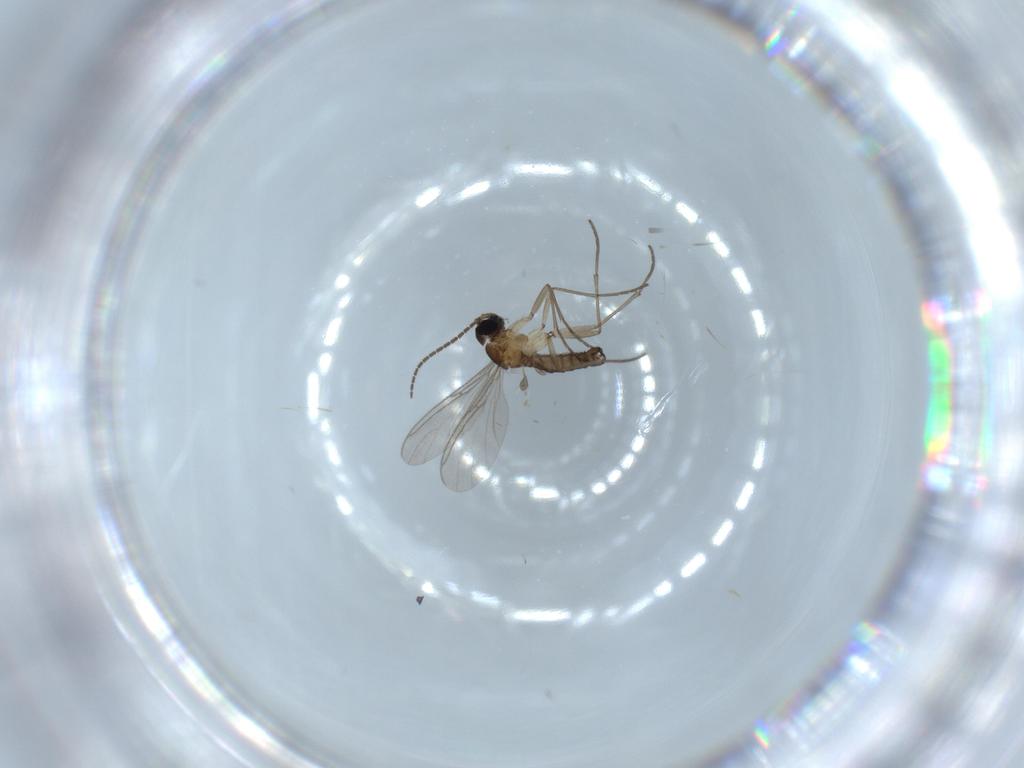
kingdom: Animalia
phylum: Arthropoda
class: Insecta
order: Diptera
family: Sciaridae
